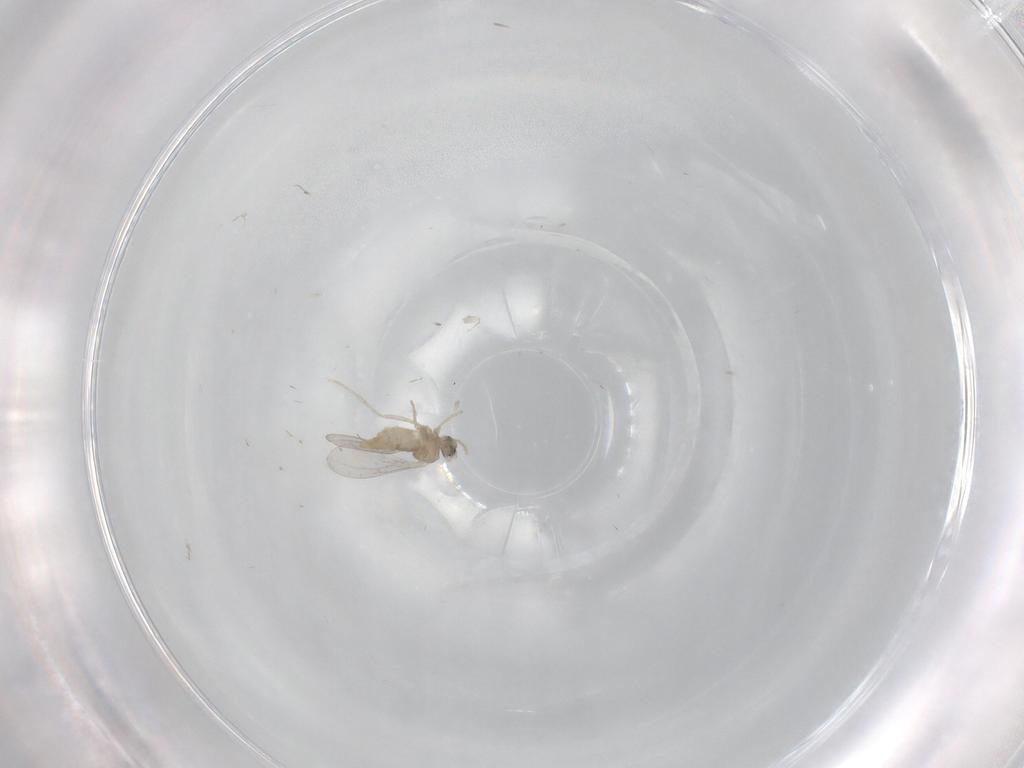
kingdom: Animalia
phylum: Arthropoda
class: Insecta
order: Diptera
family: Cecidomyiidae
